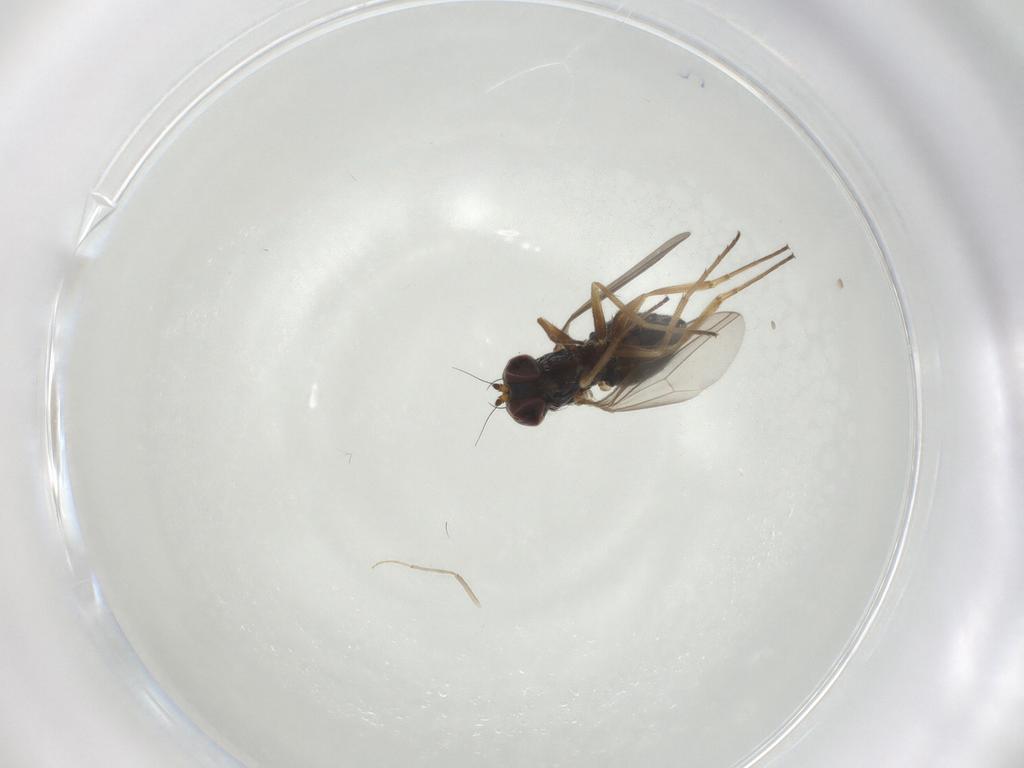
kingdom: Animalia
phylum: Arthropoda
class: Insecta
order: Diptera
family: Dolichopodidae
